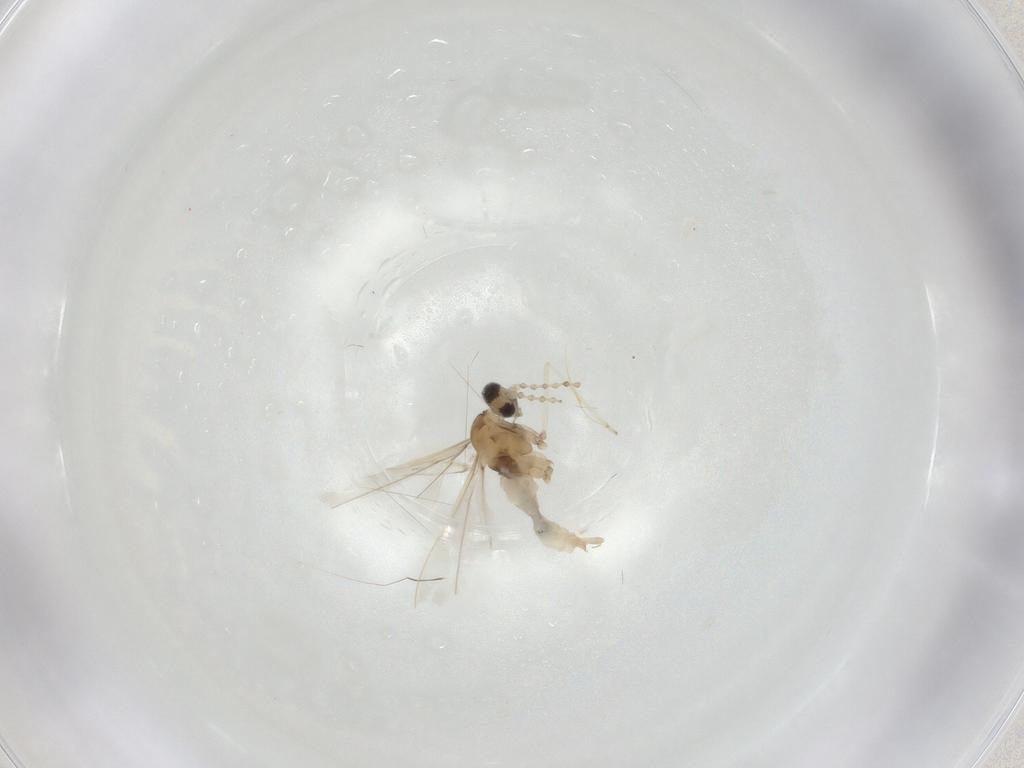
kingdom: Animalia
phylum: Arthropoda
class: Insecta
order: Diptera
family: Cecidomyiidae
